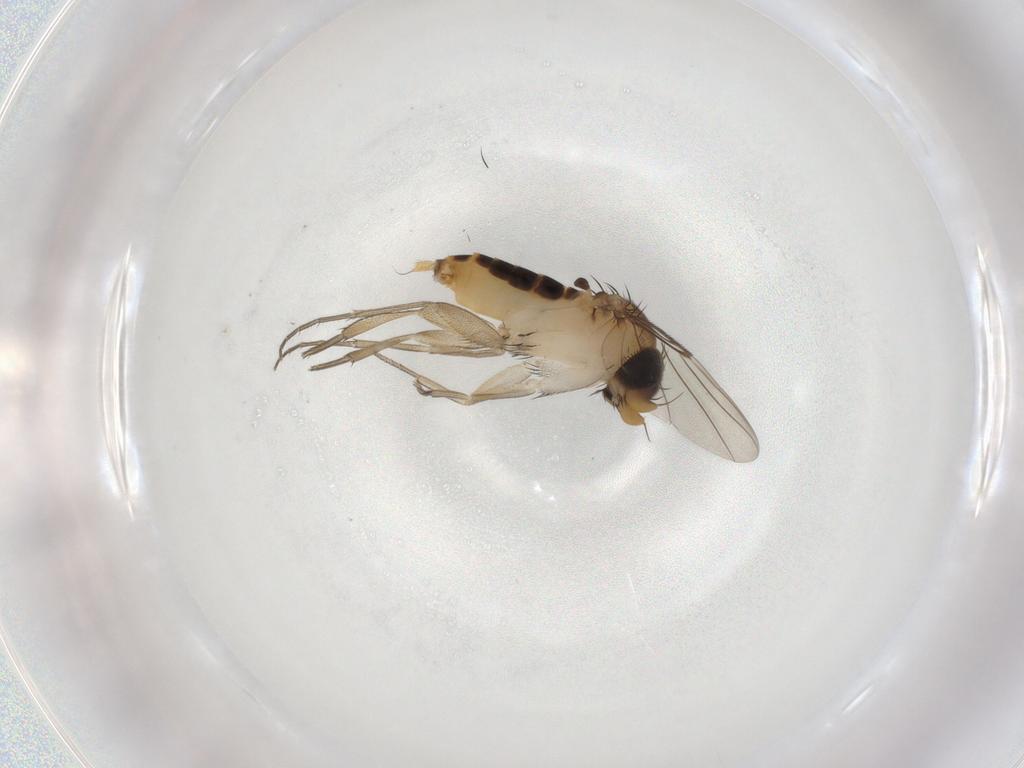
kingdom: Animalia
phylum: Arthropoda
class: Insecta
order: Diptera
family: Phoridae
